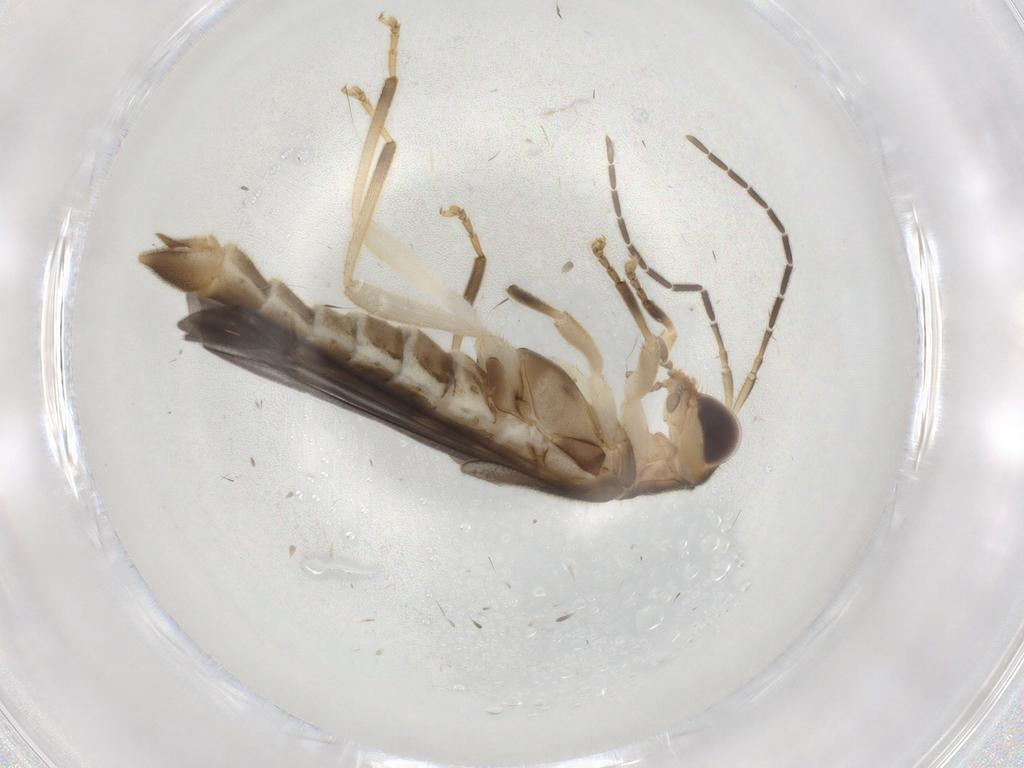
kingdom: Animalia
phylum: Arthropoda
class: Insecta
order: Coleoptera
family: Cantharidae
